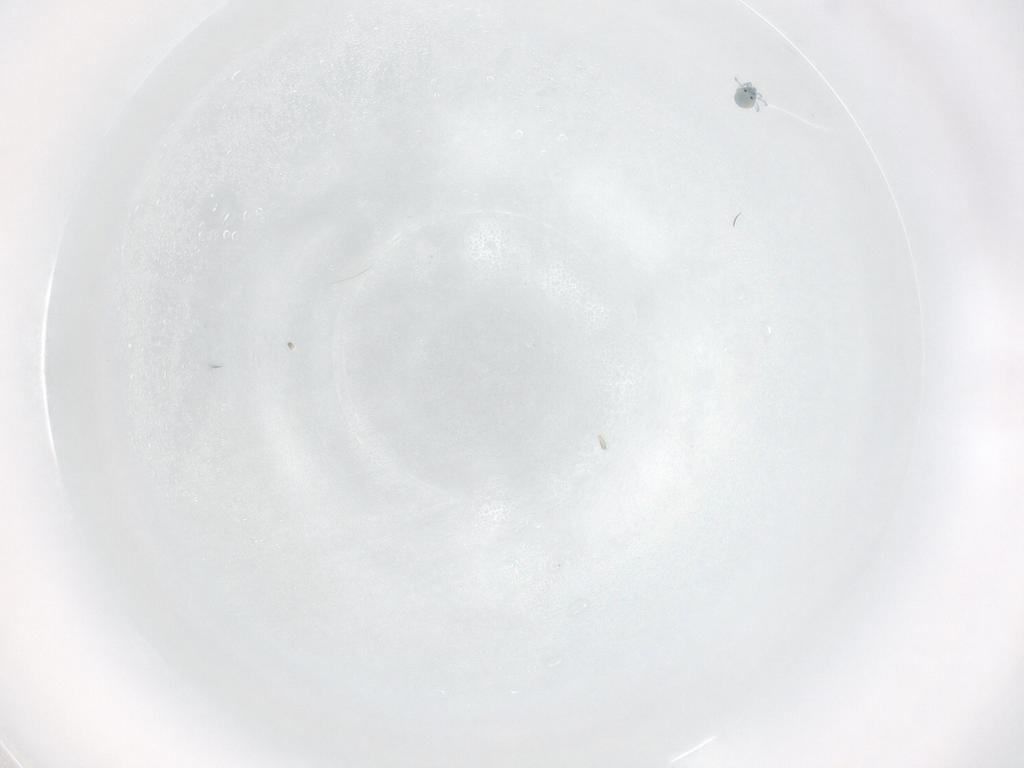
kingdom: Animalia
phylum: Arthropoda
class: Arachnida
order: Trombidiformes
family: Unionicolidae
